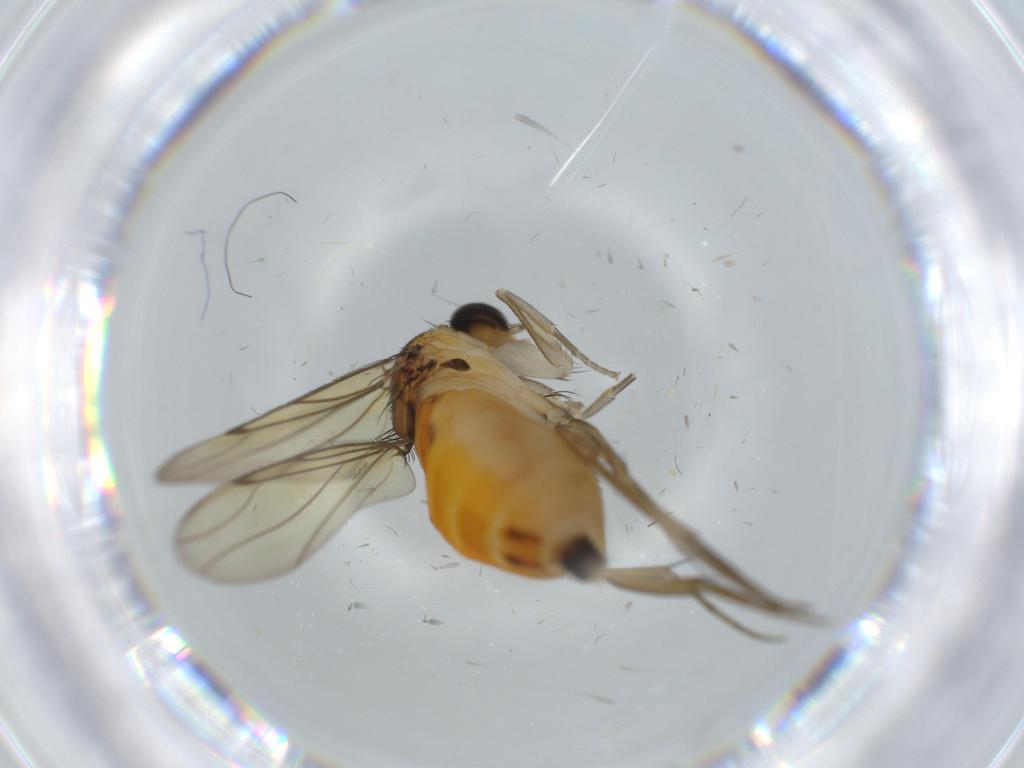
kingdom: Animalia
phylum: Arthropoda
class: Insecta
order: Diptera
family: Phoridae
